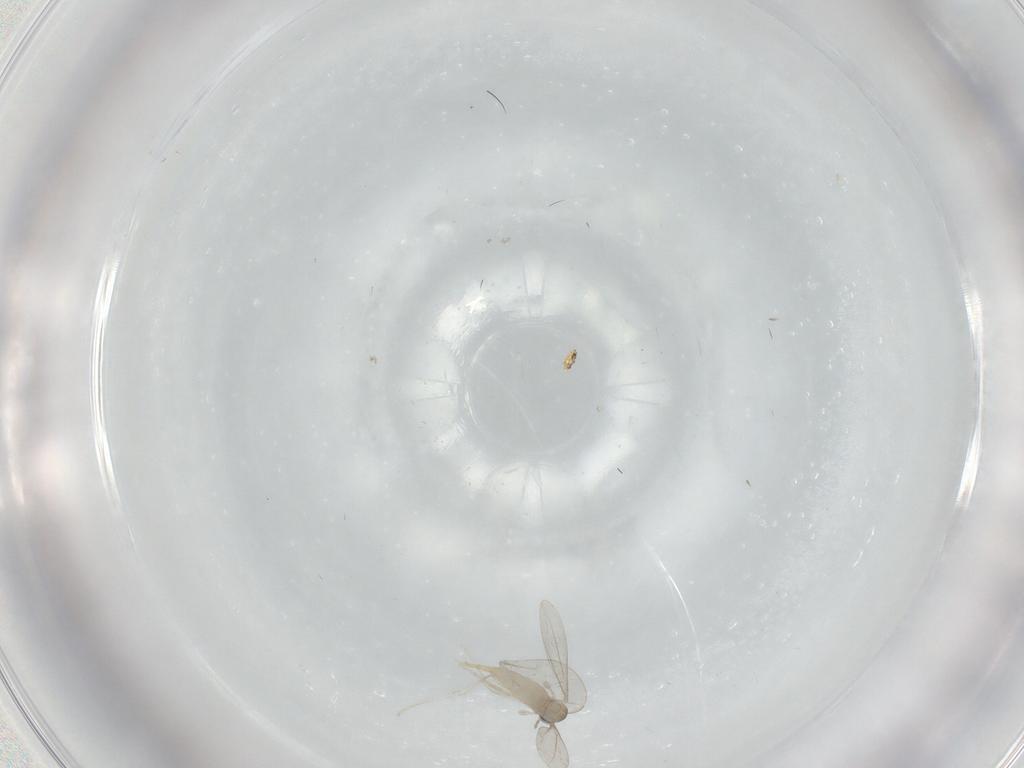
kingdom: Animalia
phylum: Arthropoda
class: Insecta
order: Diptera
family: Cecidomyiidae
